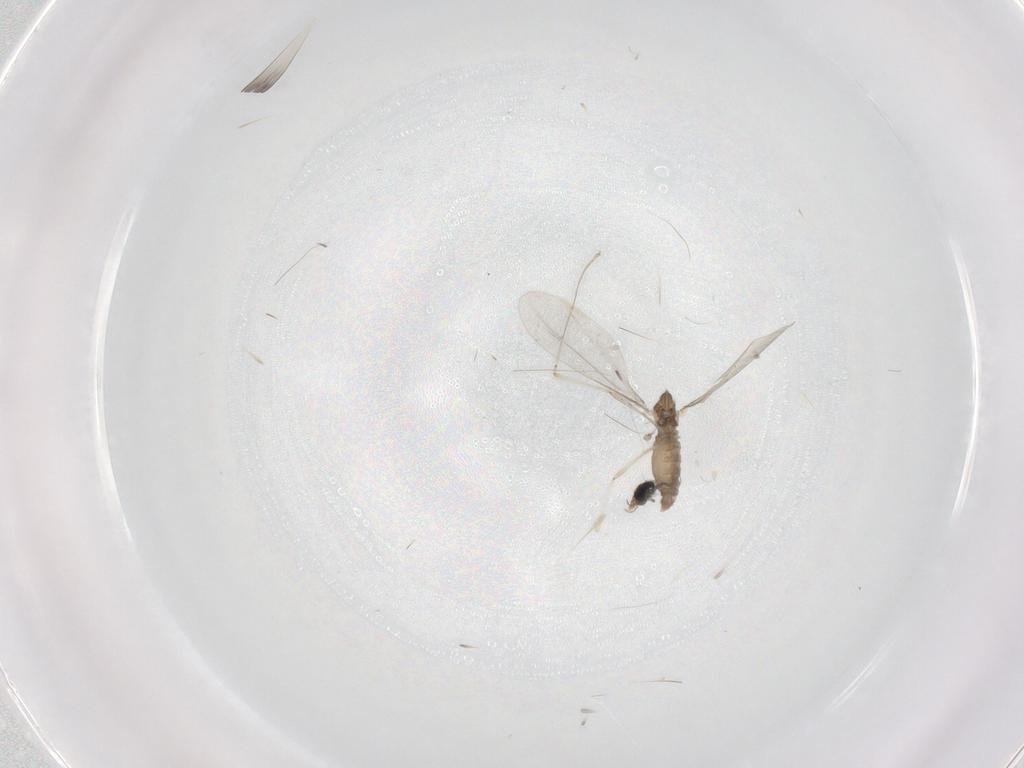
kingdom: Animalia
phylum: Arthropoda
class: Insecta
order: Diptera
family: Cecidomyiidae
